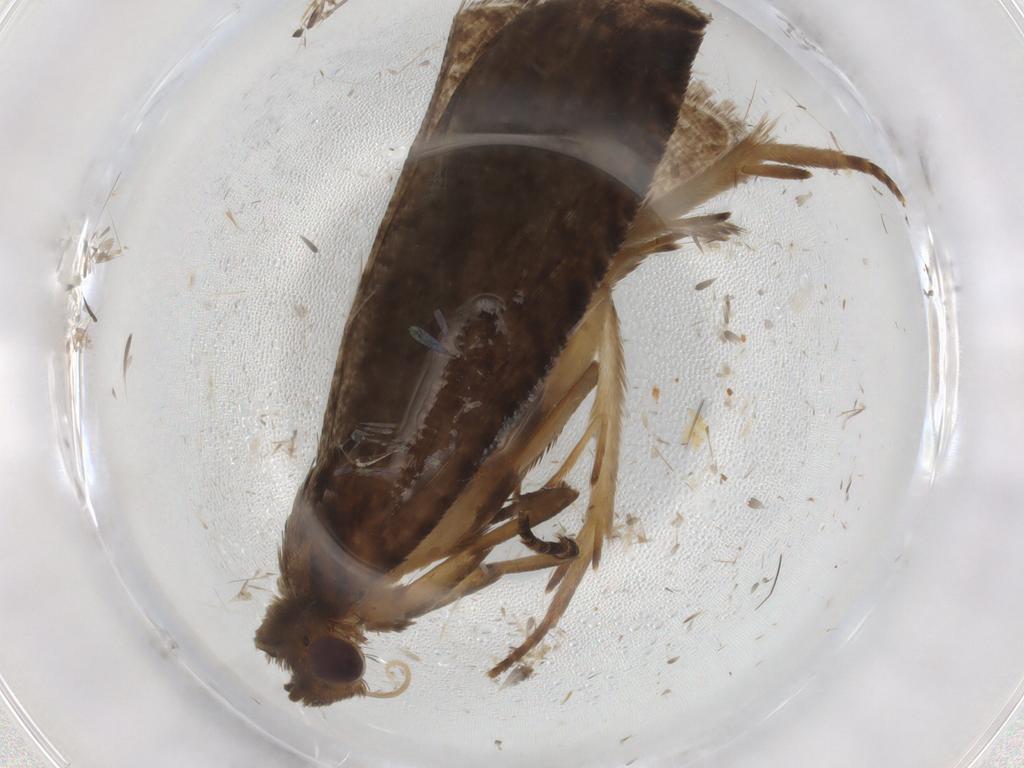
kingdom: Animalia
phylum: Arthropoda
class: Insecta
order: Lepidoptera
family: Tortricidae
